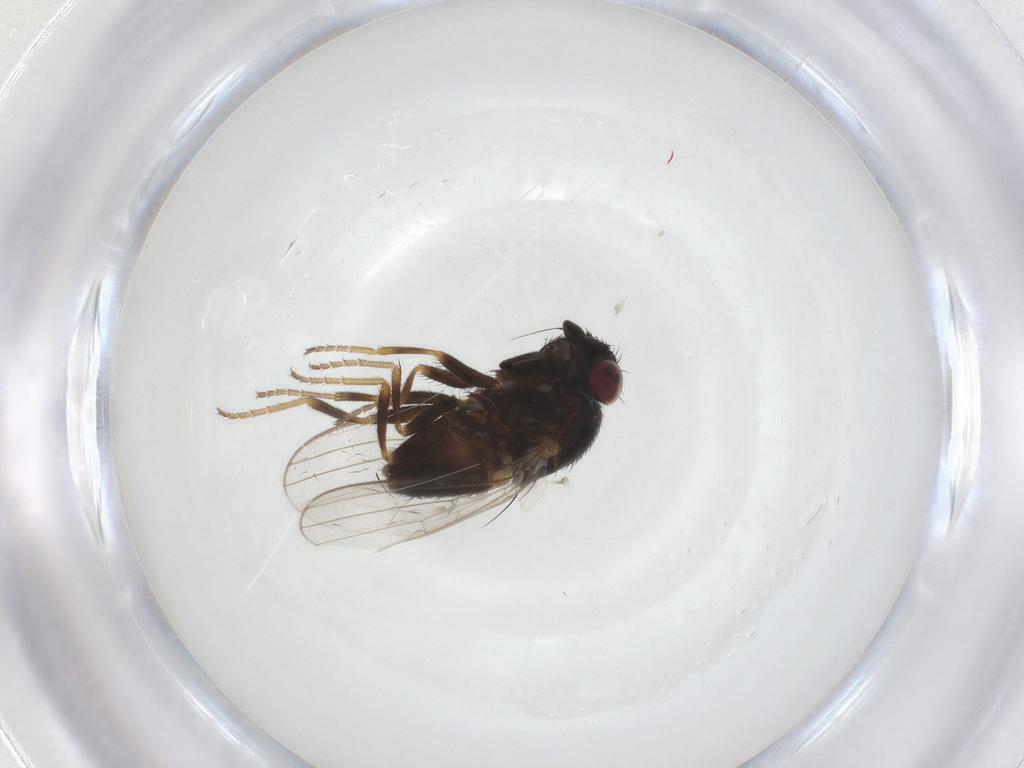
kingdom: Animalia
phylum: Arthropoda
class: Insecta
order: Diptera
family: Milichiidae
